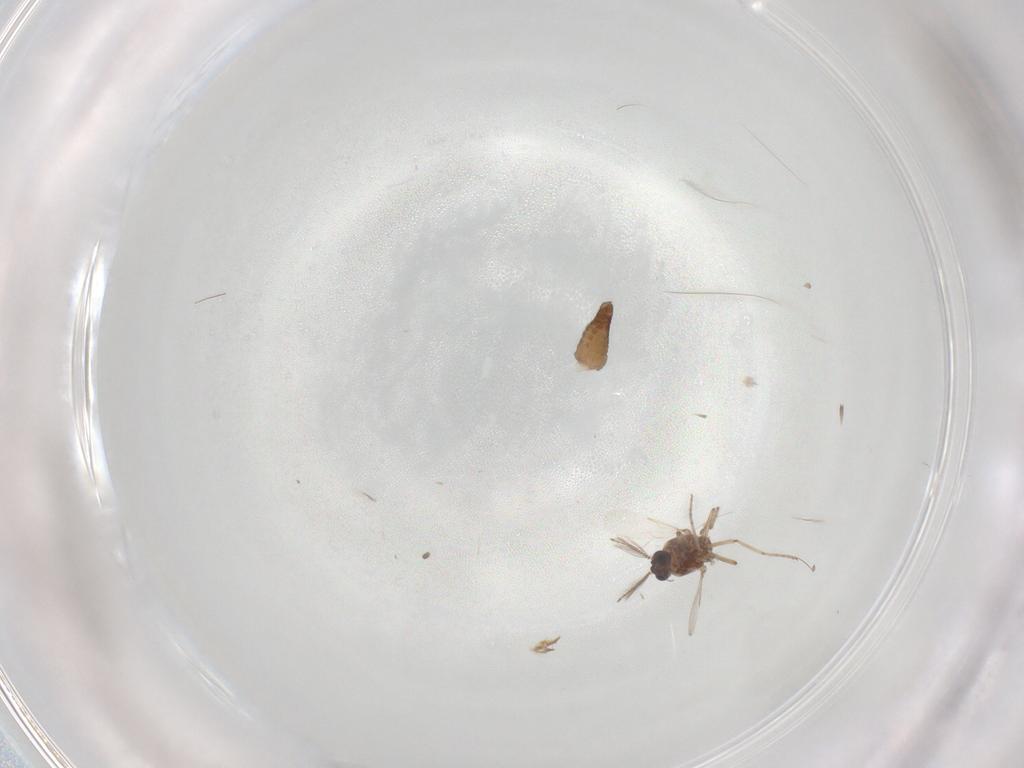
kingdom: Animalia
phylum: Arthropoda
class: Insecta
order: Diptera
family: Ceratopogonidae
